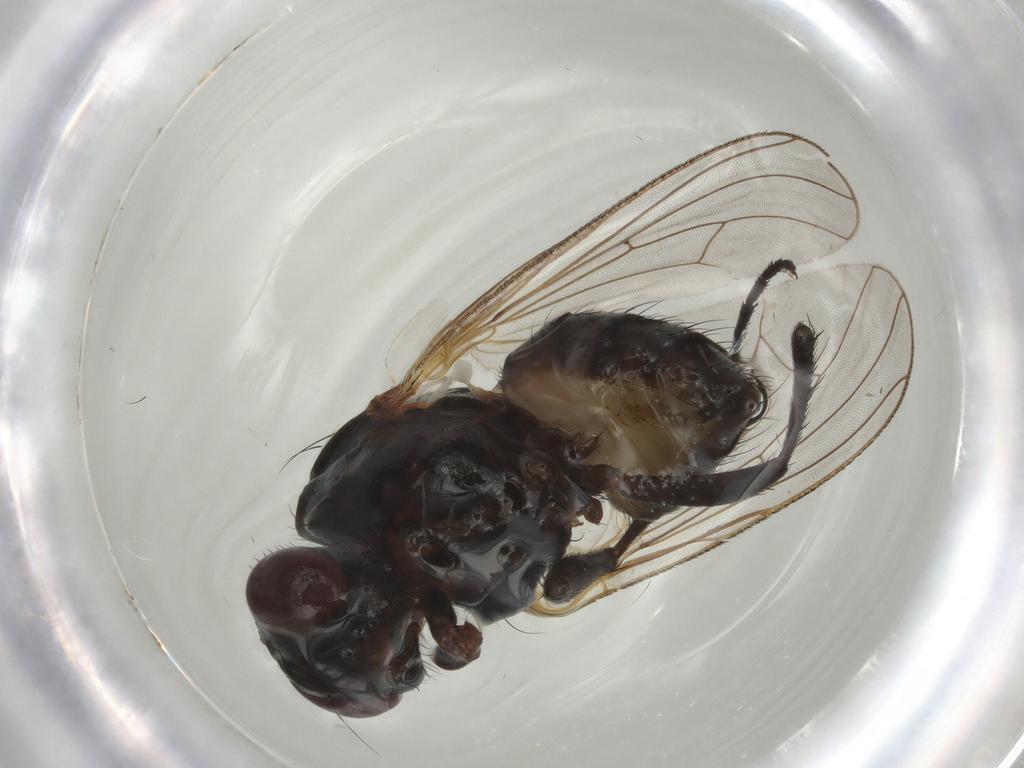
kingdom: Animalia
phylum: Arthropoda
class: Insecta
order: Diptera
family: Anthomyiidae
